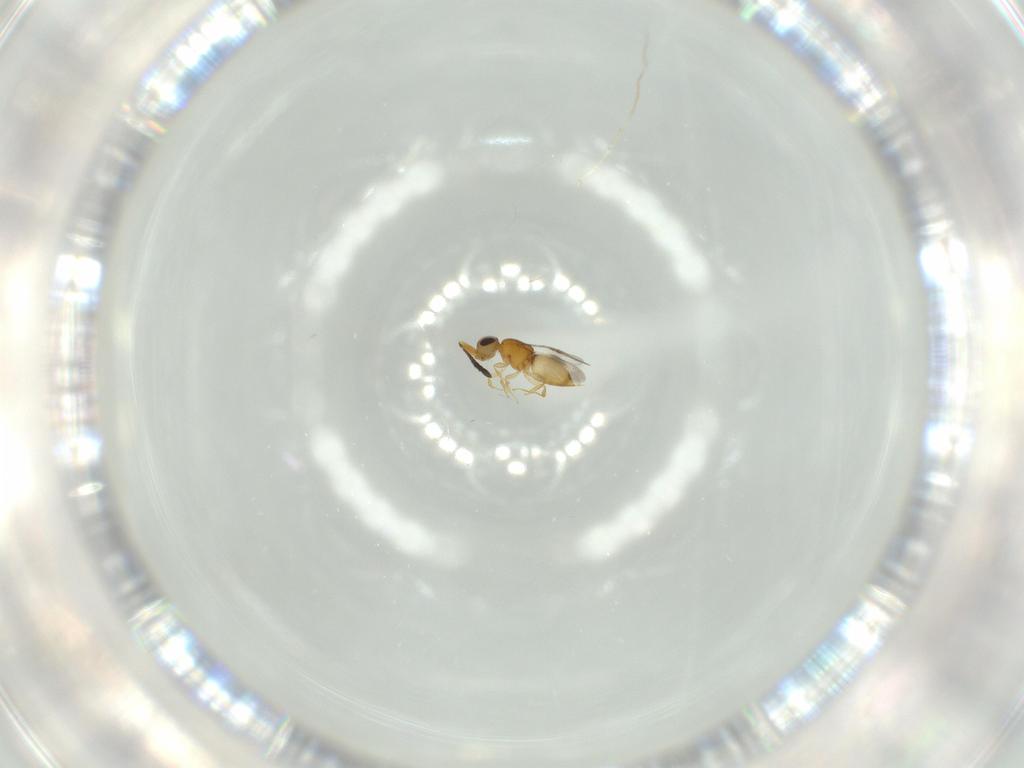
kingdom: Animalia
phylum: Arthropoda
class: Insecta
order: Hymenoptera
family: Ceraphronidae
